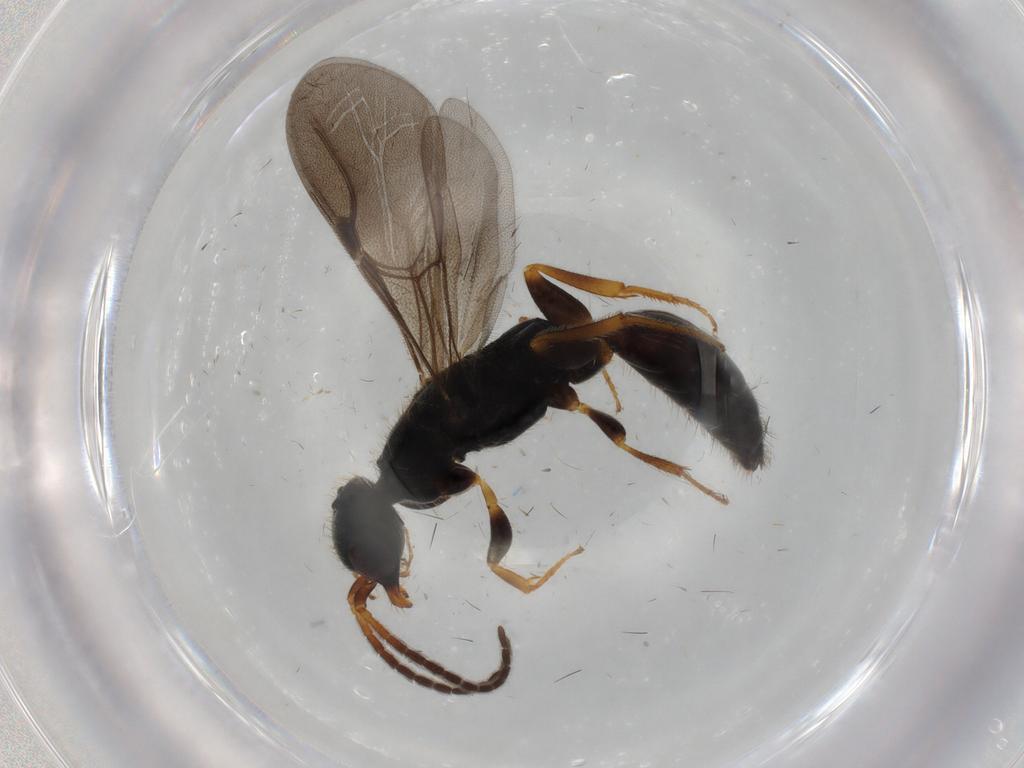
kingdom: Animalia
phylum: Arthropoda
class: Insecta
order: Hymenoptera
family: Bethylidae
